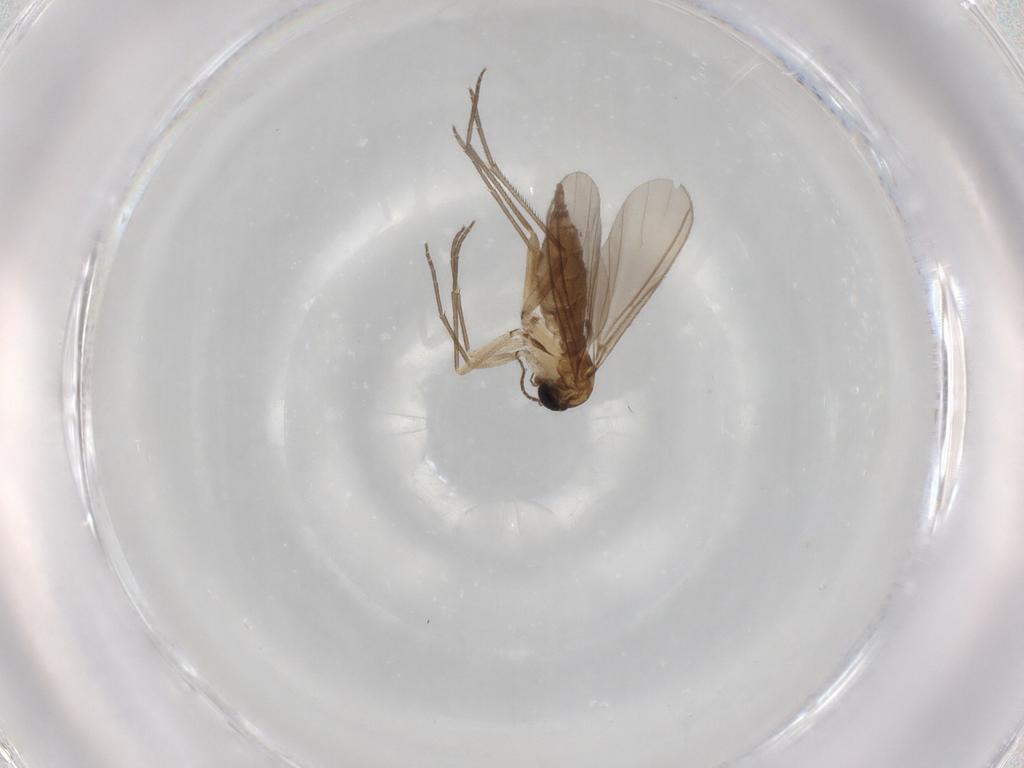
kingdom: Animalia
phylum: Arthropoda
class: Insecta
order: Diptera
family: Sciaridae
